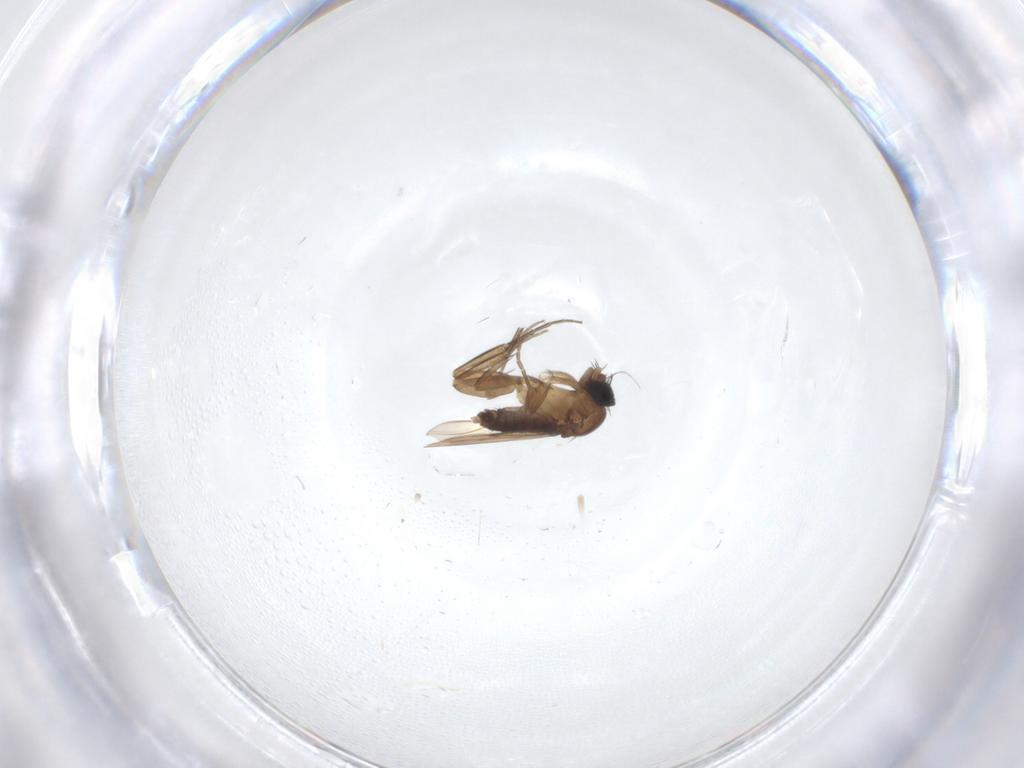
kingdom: Animalia
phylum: Arthropoda
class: Insecta
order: Diptera
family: Phoridae
